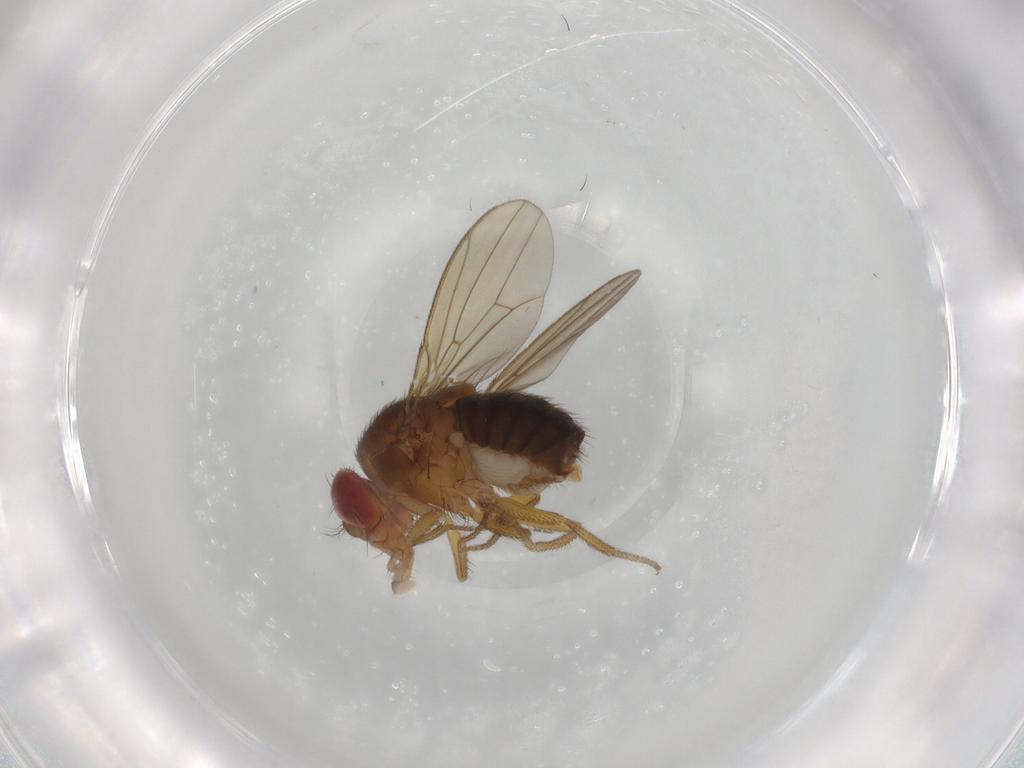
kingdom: Animalia
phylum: Arthropoda
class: Insecta
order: Diptera
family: Drosophilidae
